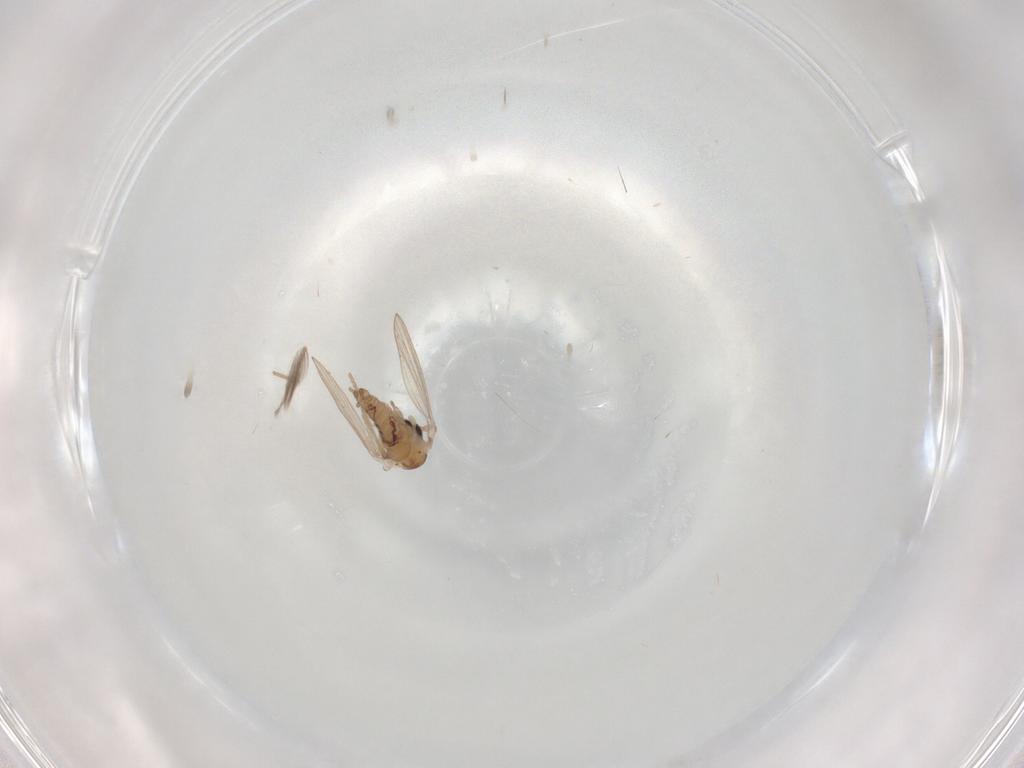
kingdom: Animalia
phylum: Arthropoda
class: Insecta
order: Diptera
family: Psychodidae
